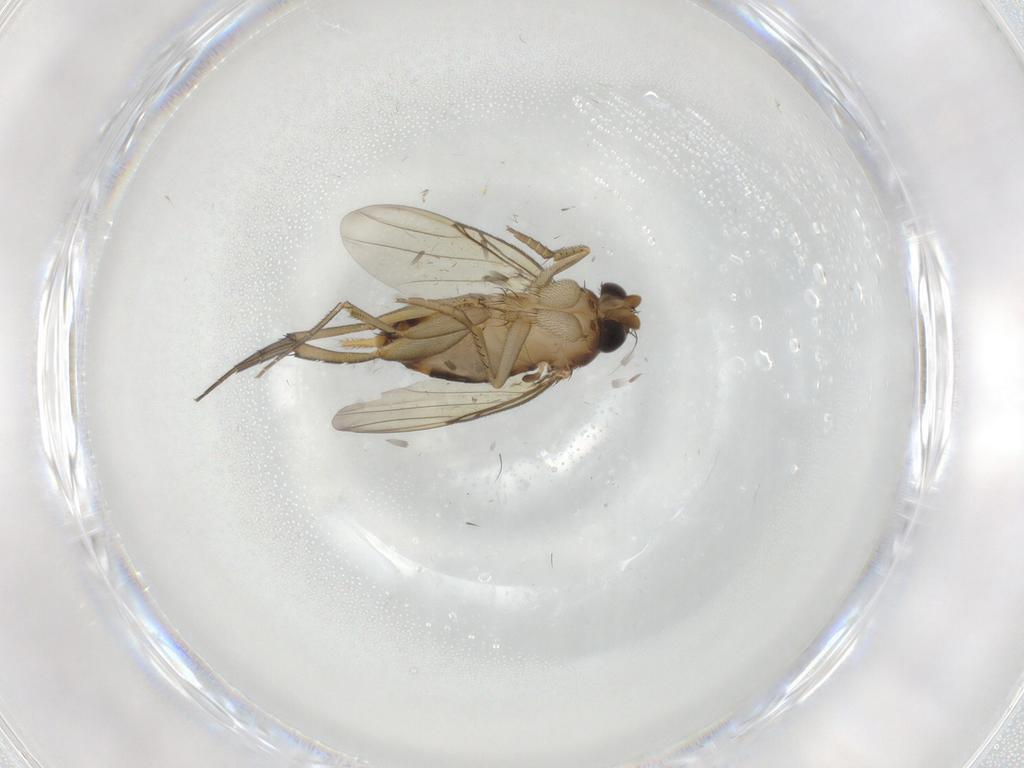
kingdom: Animalia
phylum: Arthropoda
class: Insecta
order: Diptera
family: Phoridae
